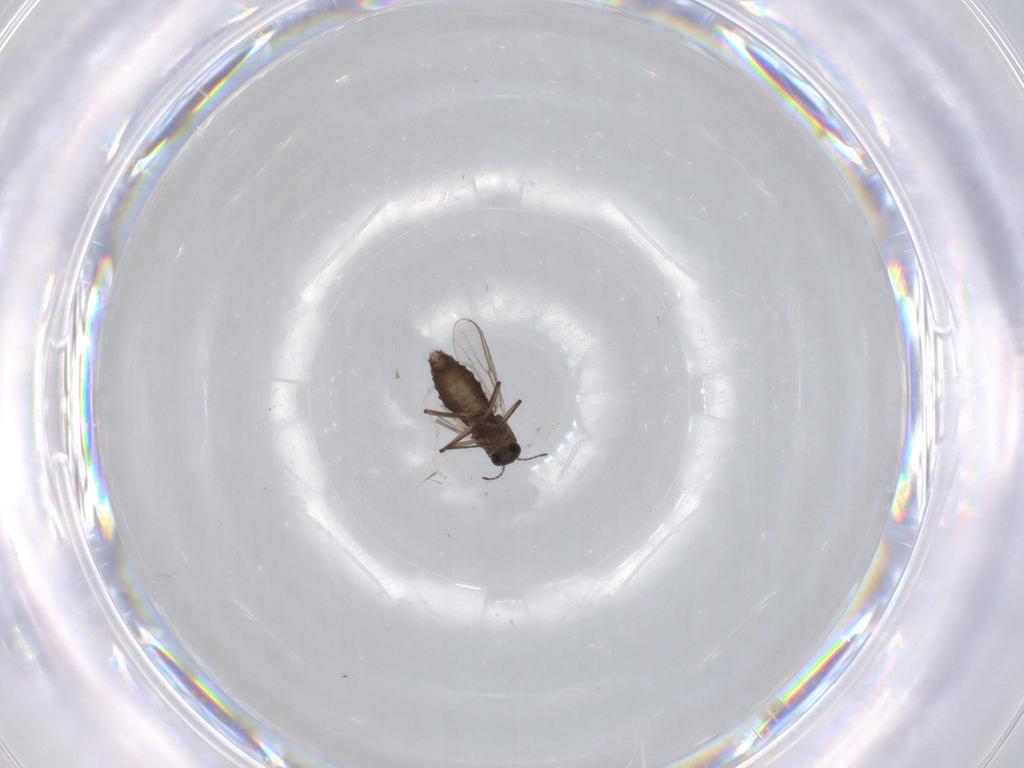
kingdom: Animalia
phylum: Arthropoda
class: Insecta
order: Diptera
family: Chironomidae
